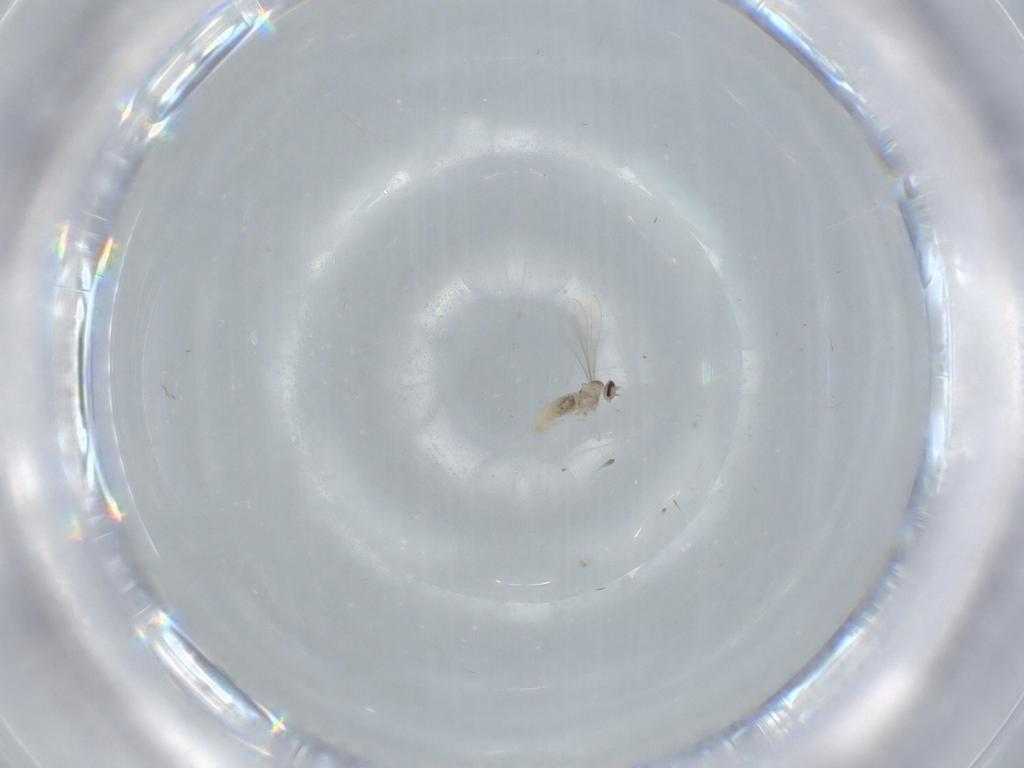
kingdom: Animalia
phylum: Arthropoda
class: Insecta
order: Diptera
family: Cecidomyiidae
